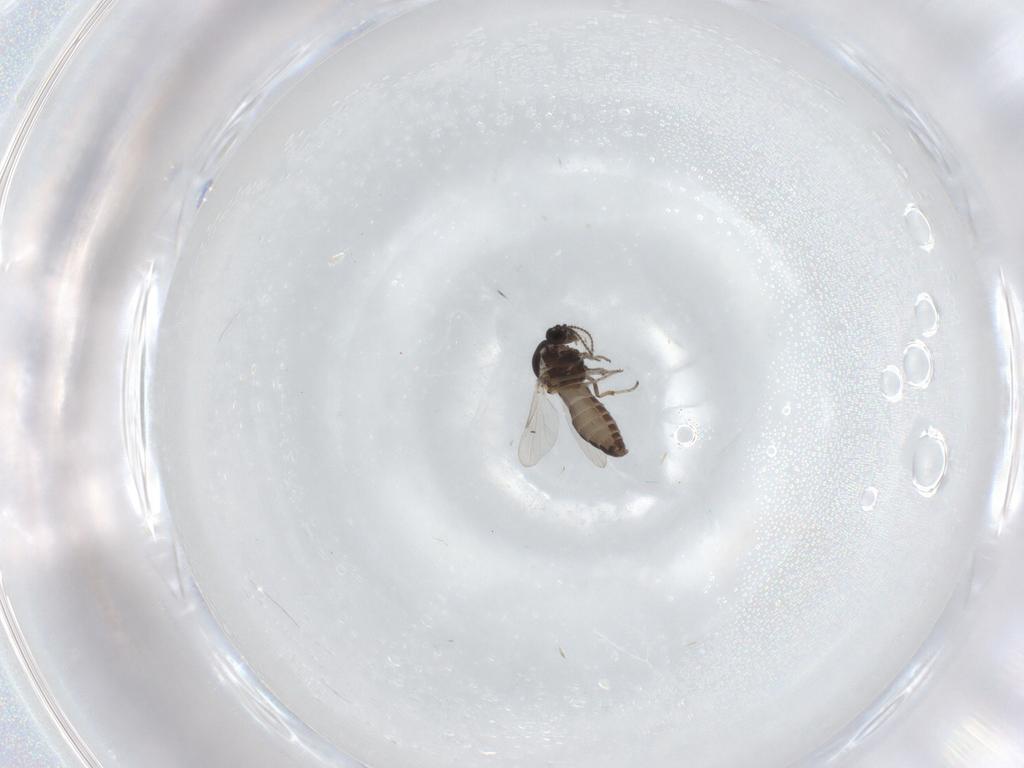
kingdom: Animalia
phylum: Arthropoda
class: Insecta
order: Diptera
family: Ceratopogonidae
